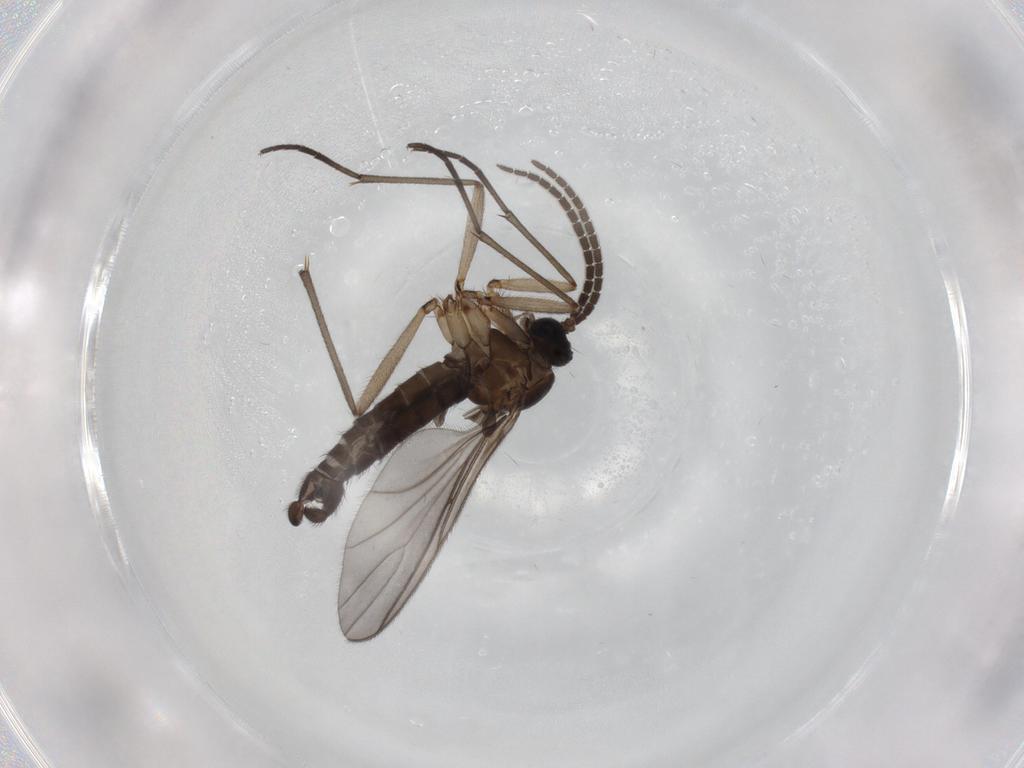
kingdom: Animalia
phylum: Arthropoda
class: Insecta
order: Diptera
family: Sciaridae
